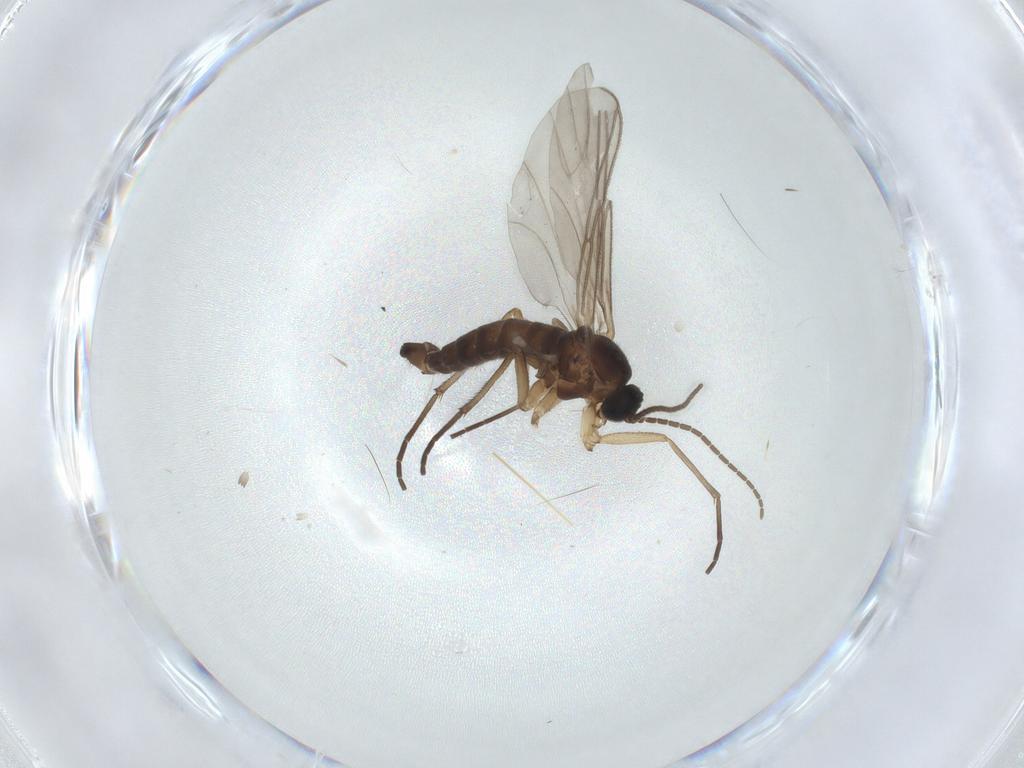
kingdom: Animalia
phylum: Arthropoda
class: Insecta
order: Diptera
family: Sciaridae
